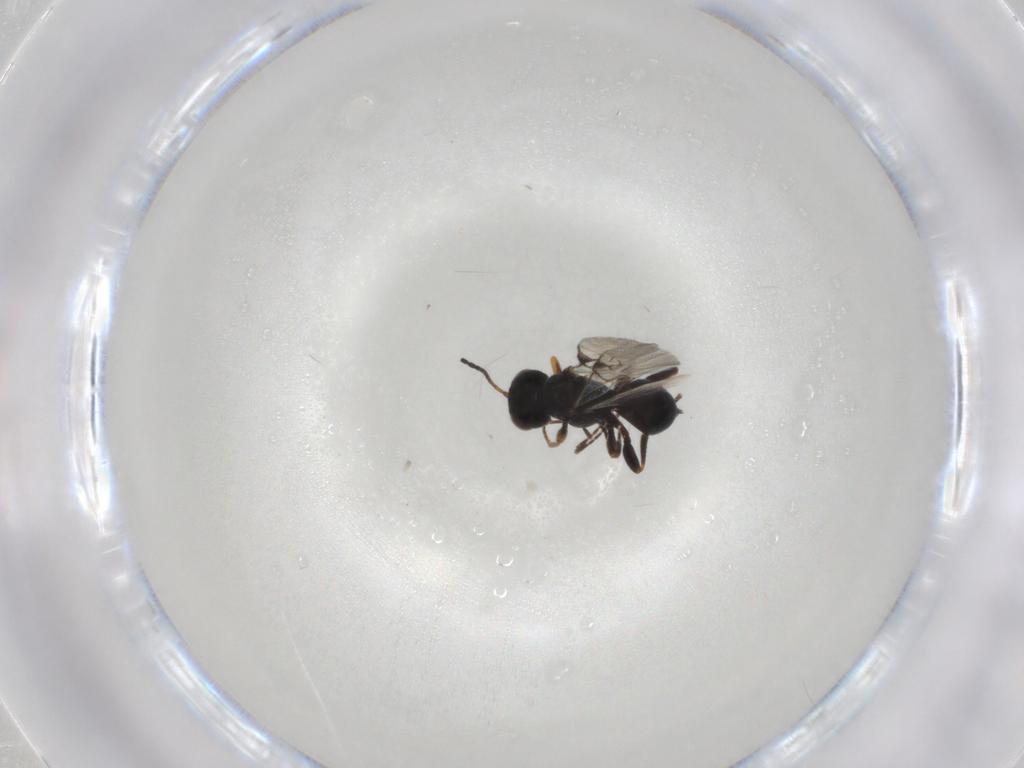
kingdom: Animalia
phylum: Arthropoda
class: Insecta
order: Hymenoptera
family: Braconidae
